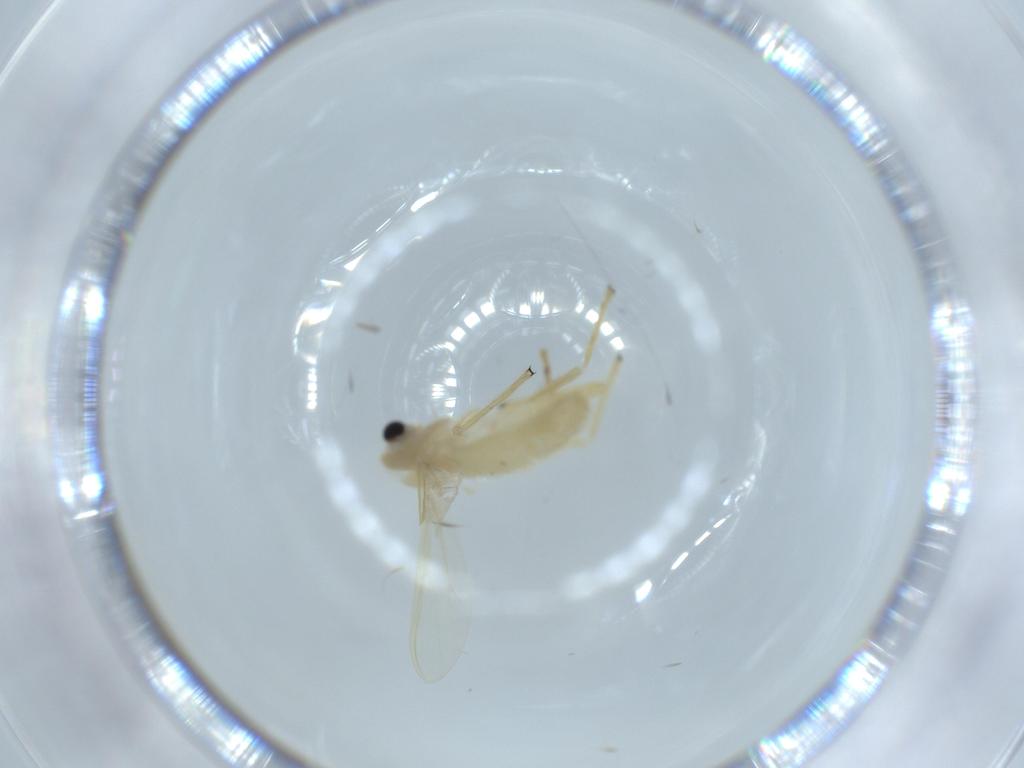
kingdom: Animalia
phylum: Arthropoda
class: Insecta
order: Diptera
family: Chironomidae
